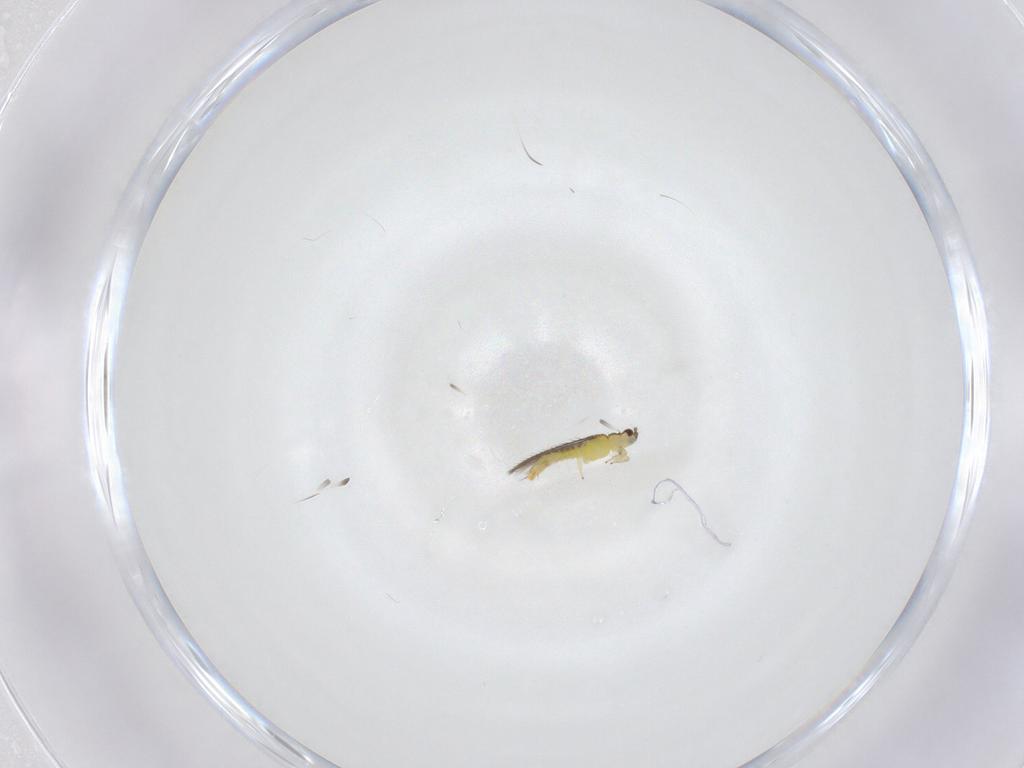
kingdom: Animalia
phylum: Arthropoda
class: Insecta
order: Thysanoptera
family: Thripidae
